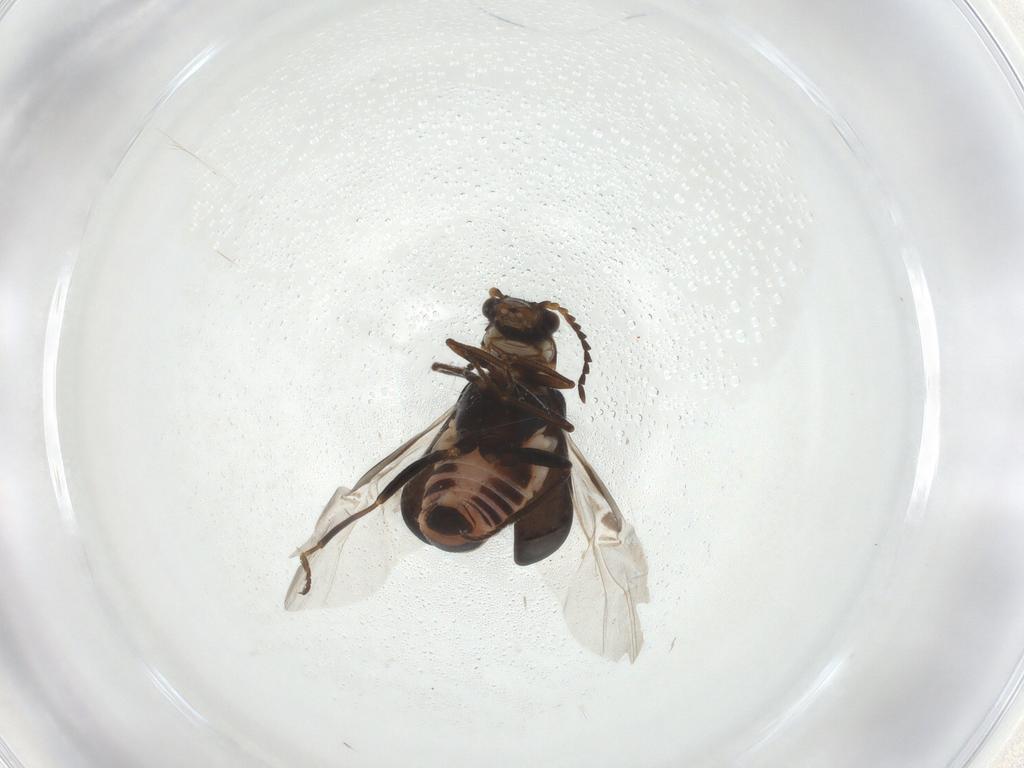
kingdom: Animalia
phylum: Arthropoda
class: Insecta
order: Coleoptera
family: Melyridae
